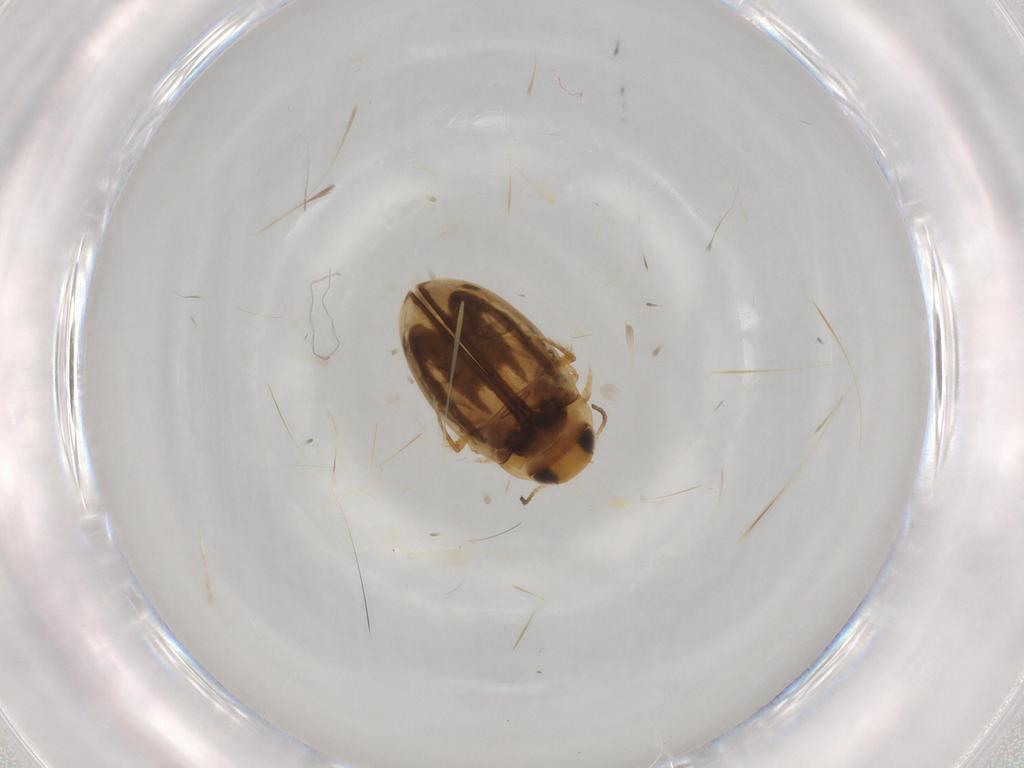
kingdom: Animalia
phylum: Arthropoda
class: Insecta
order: Coleoptera
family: Dytiscidae
